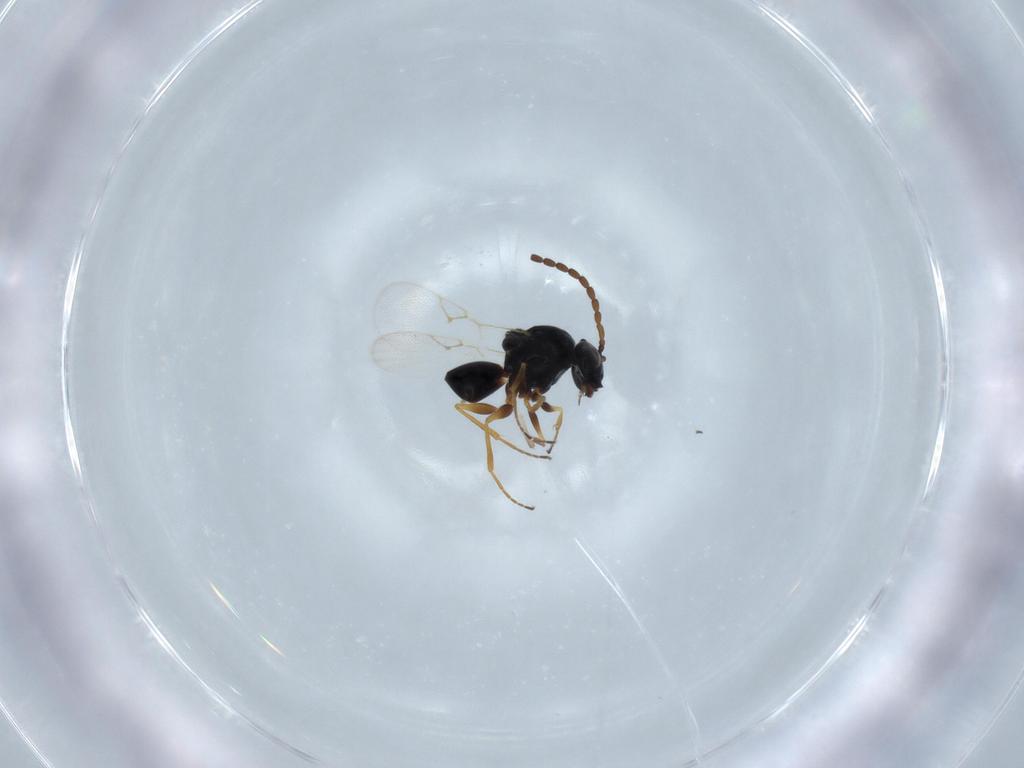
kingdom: Animalia
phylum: Arthropoda
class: Insecta
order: Hymenoptera
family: Figitidae
